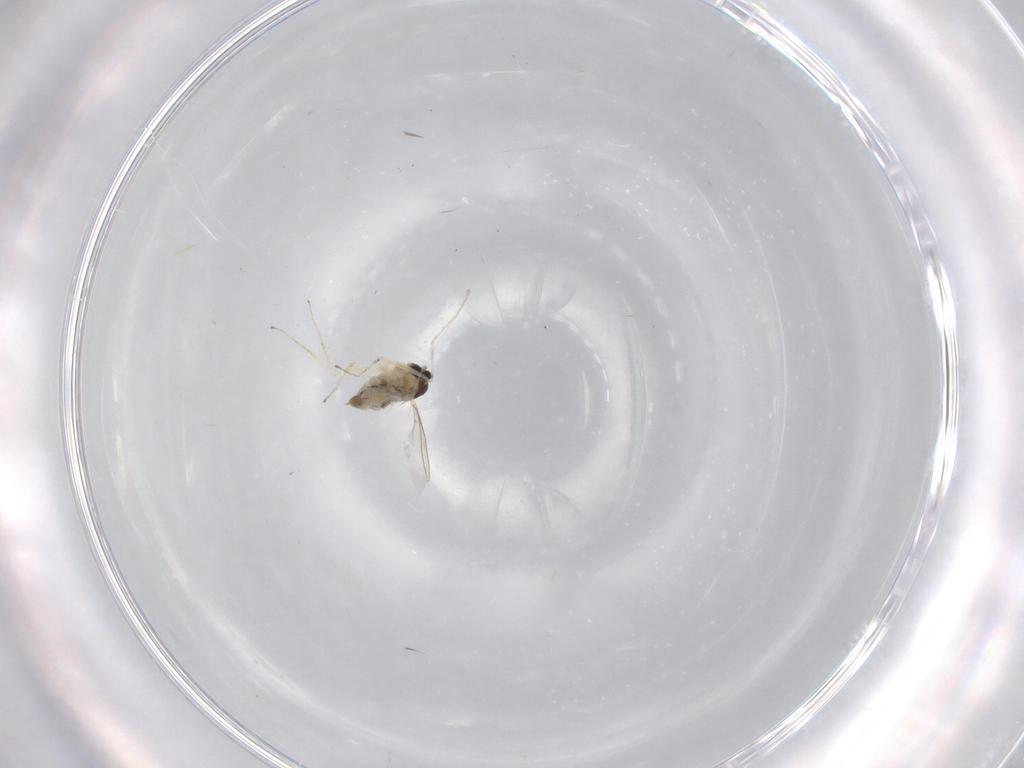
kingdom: Animalia
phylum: Arthropoda
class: Insecta
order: Diptera
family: Cecidomyiidae
